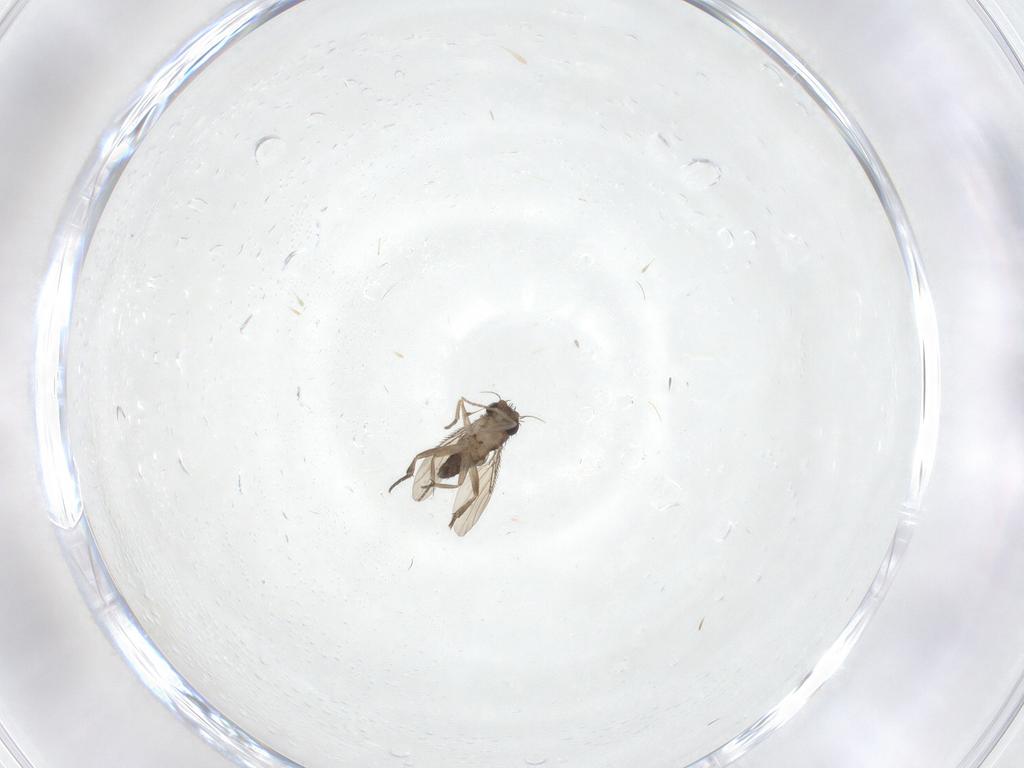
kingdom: Animalia
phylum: Arthropoda
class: Insecta
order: Diptera
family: Phoridae
